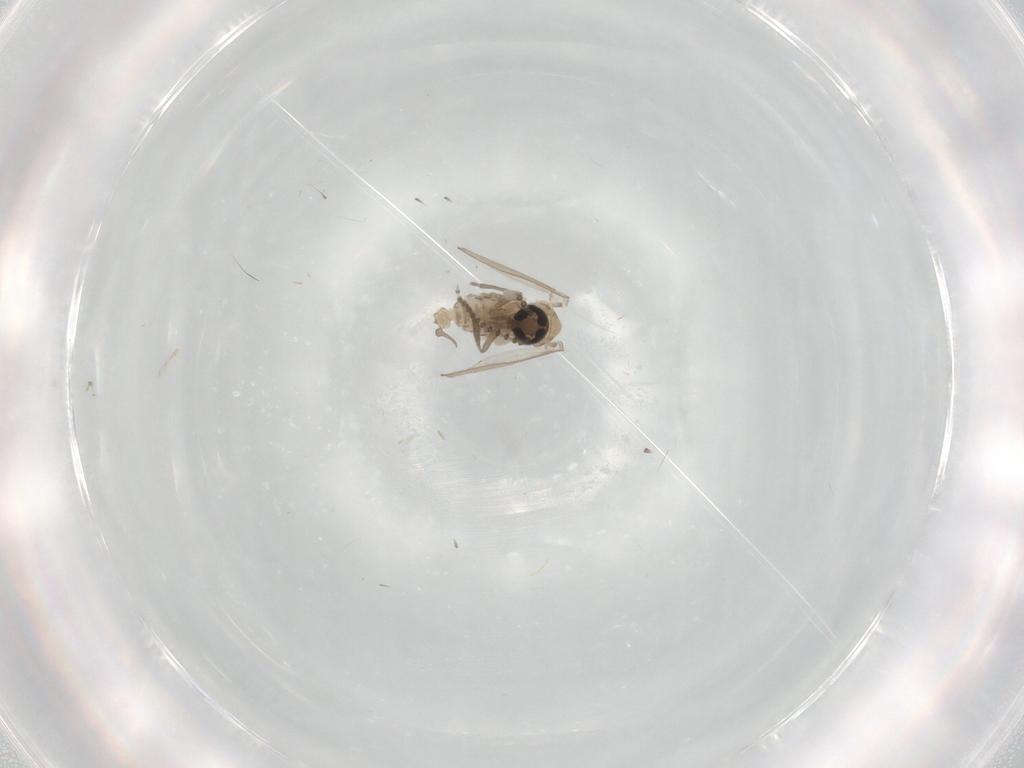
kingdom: Animalia
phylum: Arthropoda
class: Insecta
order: Diptera
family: Psychodidae
